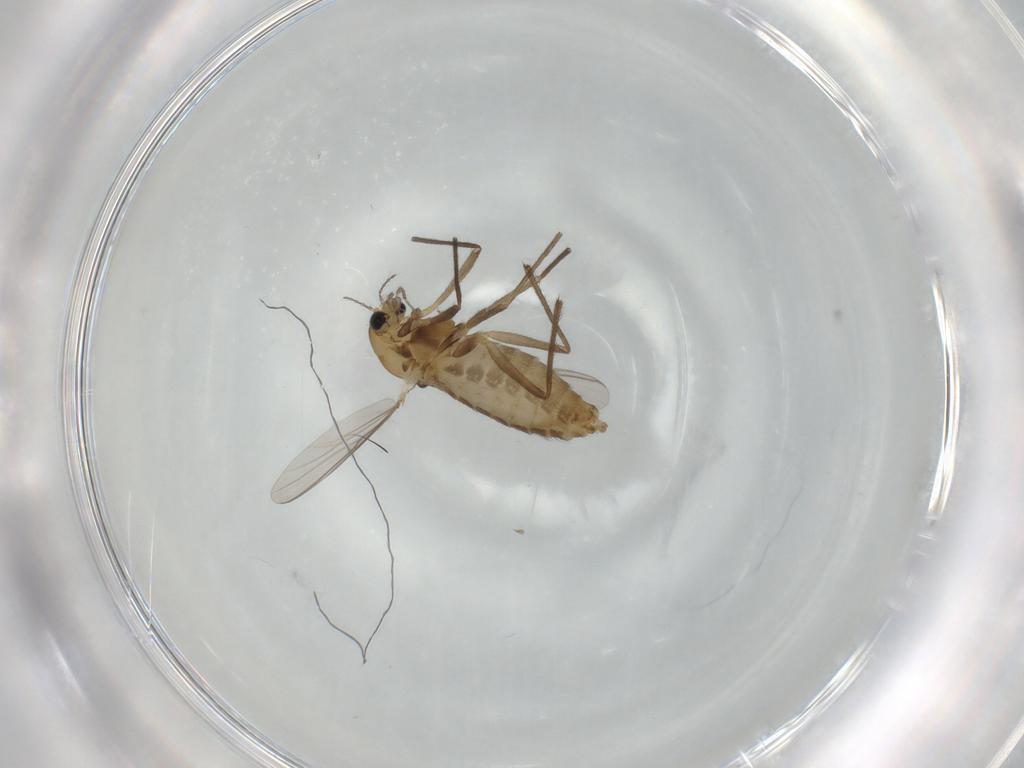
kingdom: Animalia
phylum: Arthropoda
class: Insecta
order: Diptera
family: Chironomidae
